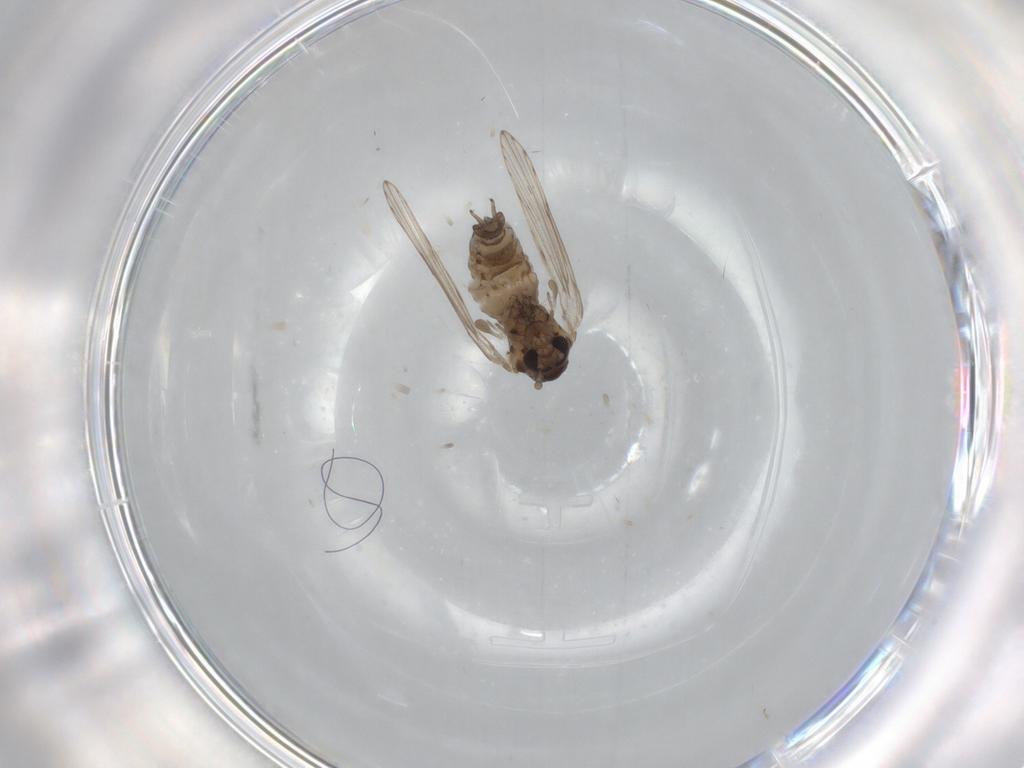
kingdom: Animalia
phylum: Arthropoda
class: Insecta
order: Diptera
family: Psychodidae
